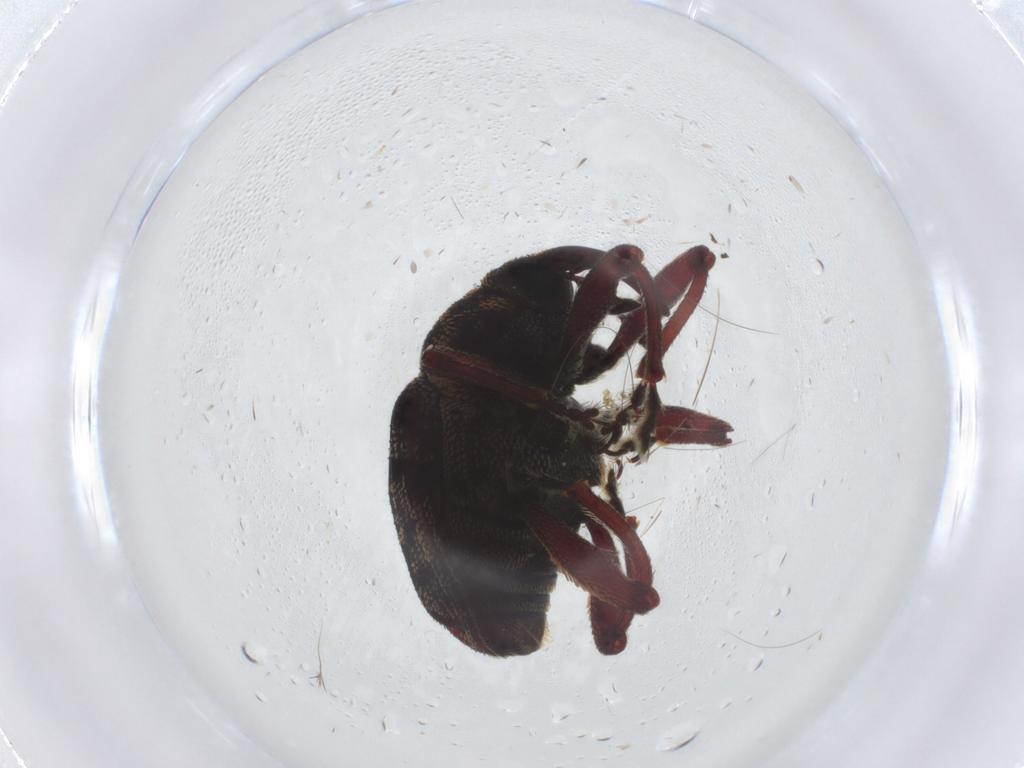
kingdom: Animalia
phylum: Arthropoda
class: Insecta
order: Coleoptera
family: Curculionidae
